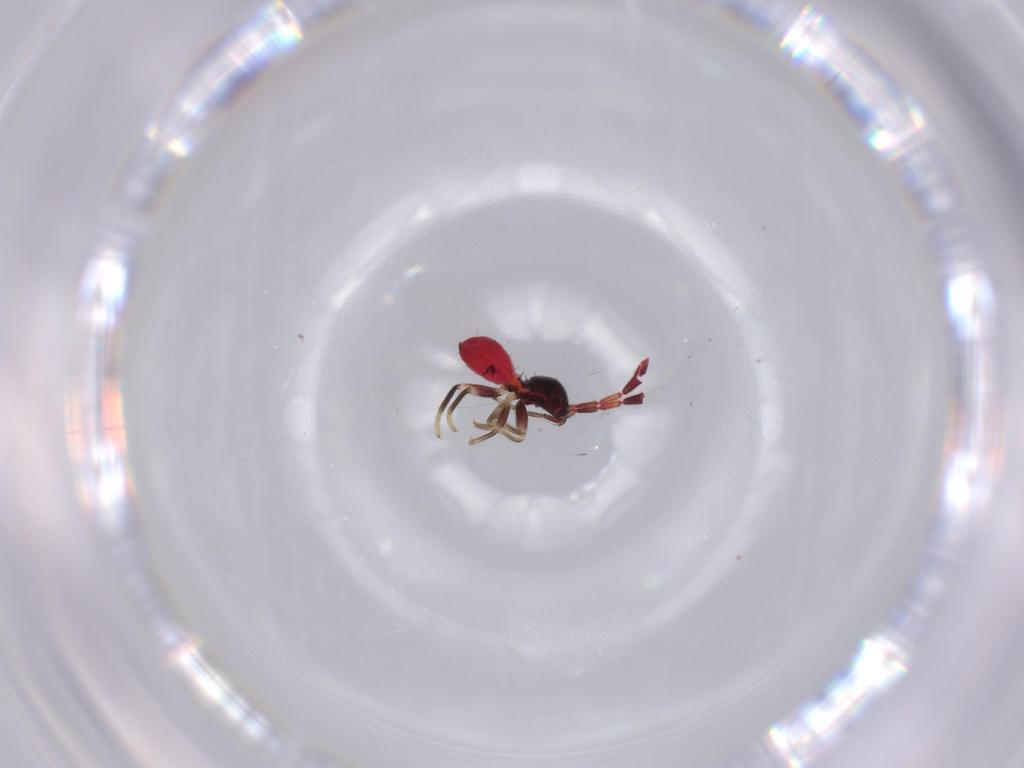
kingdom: Animalia
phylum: Arthropoda
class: Insecta
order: Hemiptera
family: Rhyparochromidae
